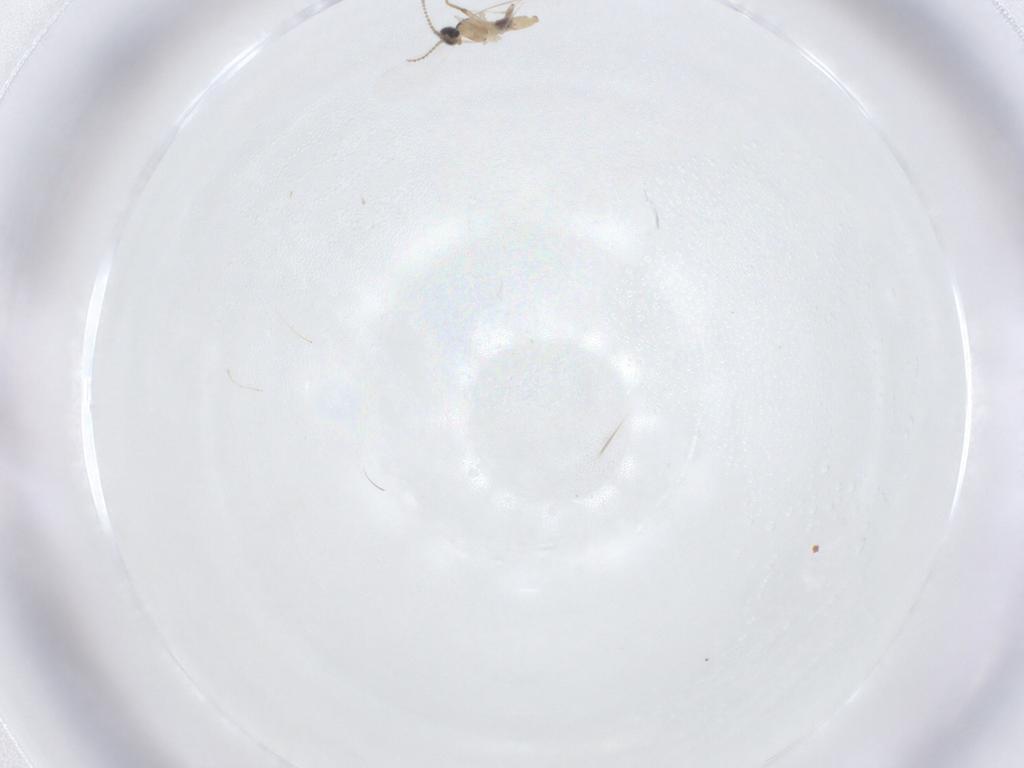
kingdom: Animalia
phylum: Arthropoda
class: Insecta
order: Diptera
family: Cecidomyiidae
